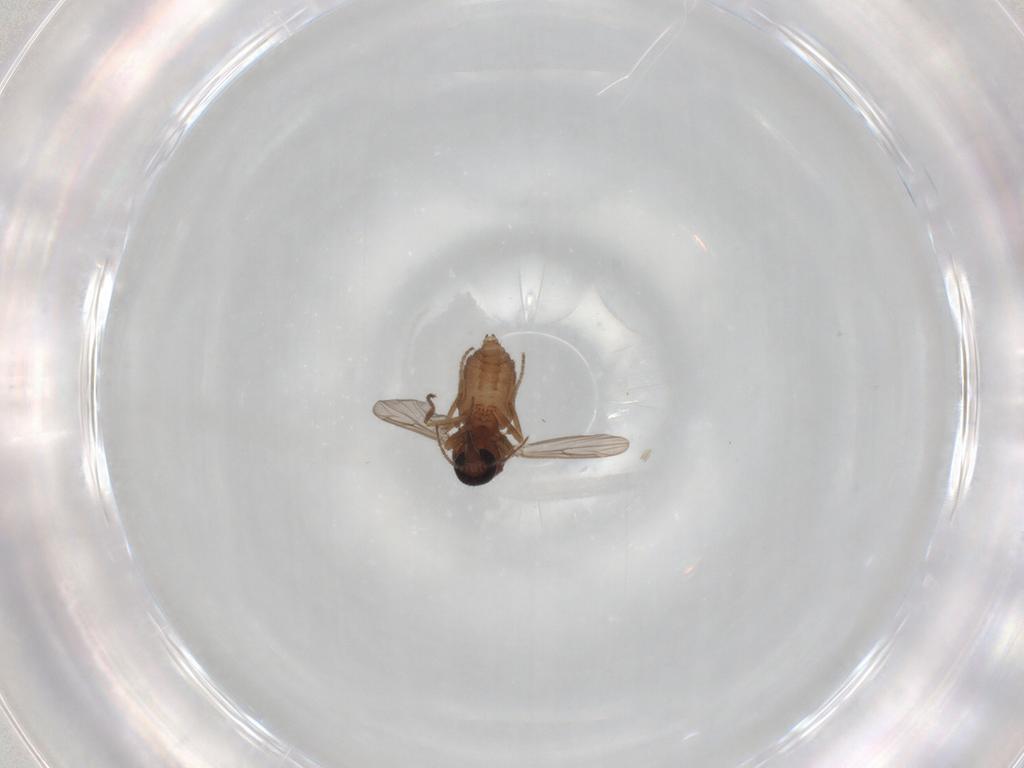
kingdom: Animalia
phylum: Arthropoda
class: Insecta
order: Diptera
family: Ceratopogonidae
